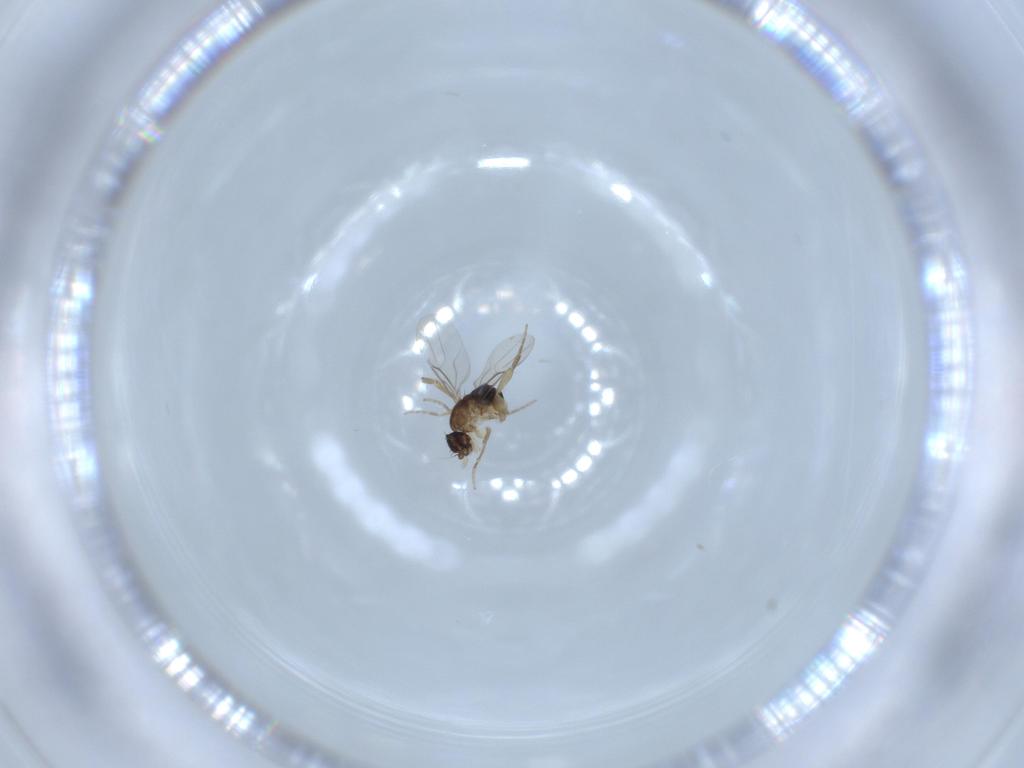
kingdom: Animalia
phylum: Arthropoda
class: Insecta
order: Diptera
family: Phoridae
